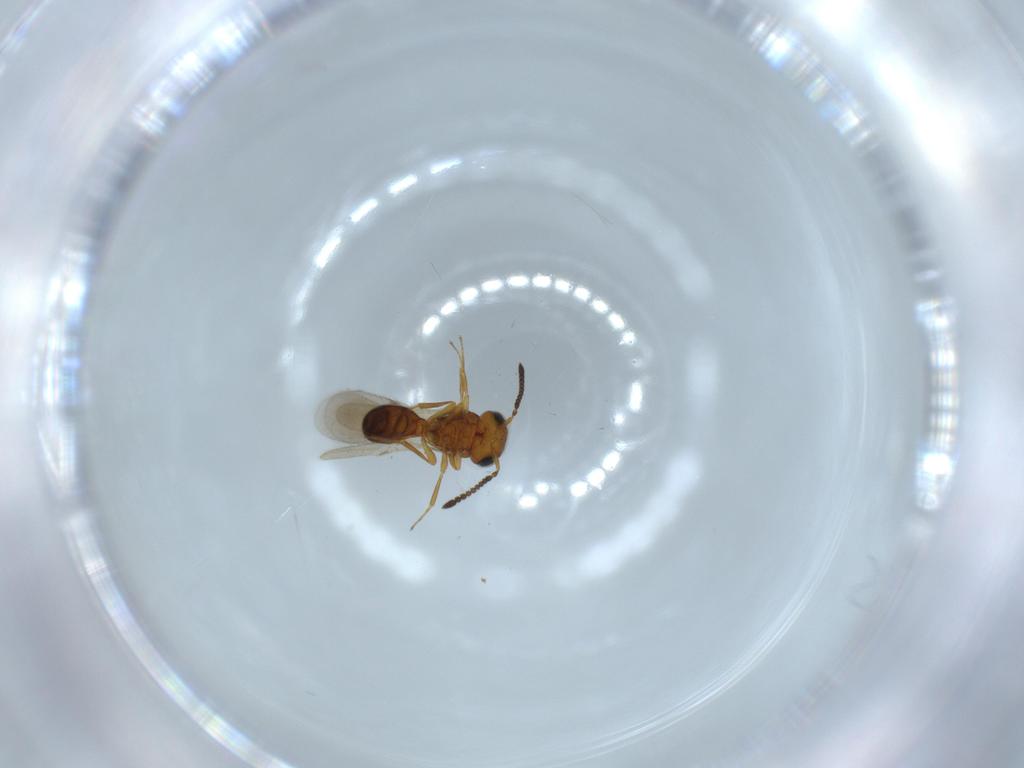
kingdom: Animalia
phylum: Arthropoda
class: Insecta
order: Hymenoptera
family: Scelionidae
